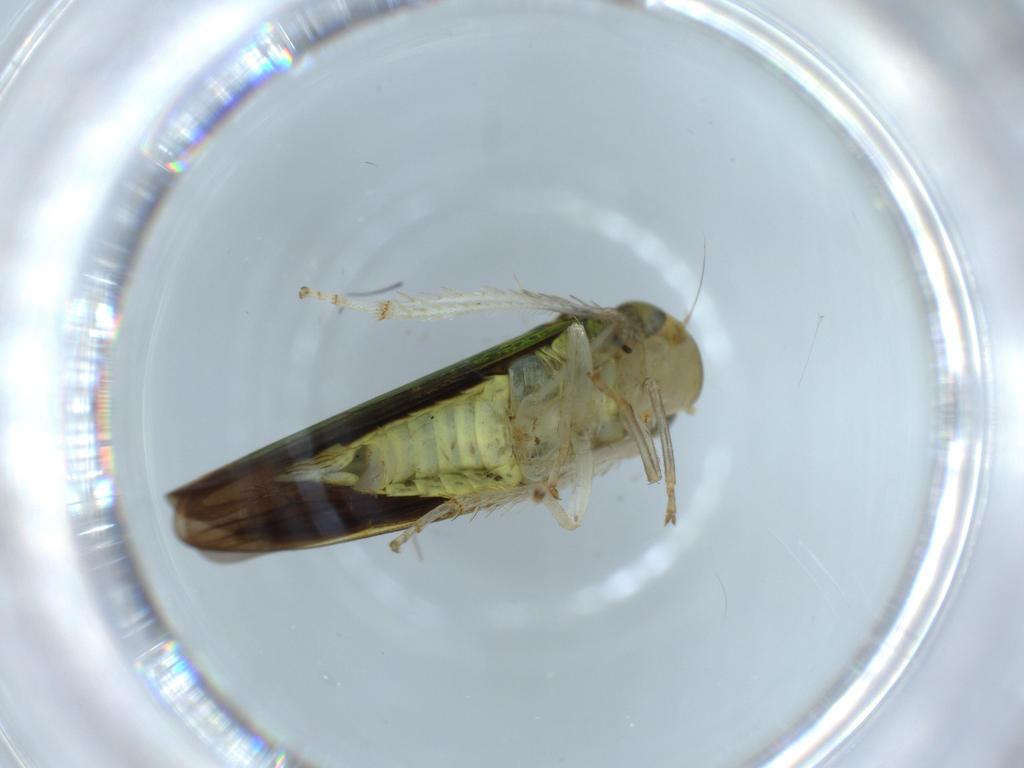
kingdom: Animalia
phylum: Arthropoda
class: Insecta
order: Hemiptera
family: Cicadellidae
